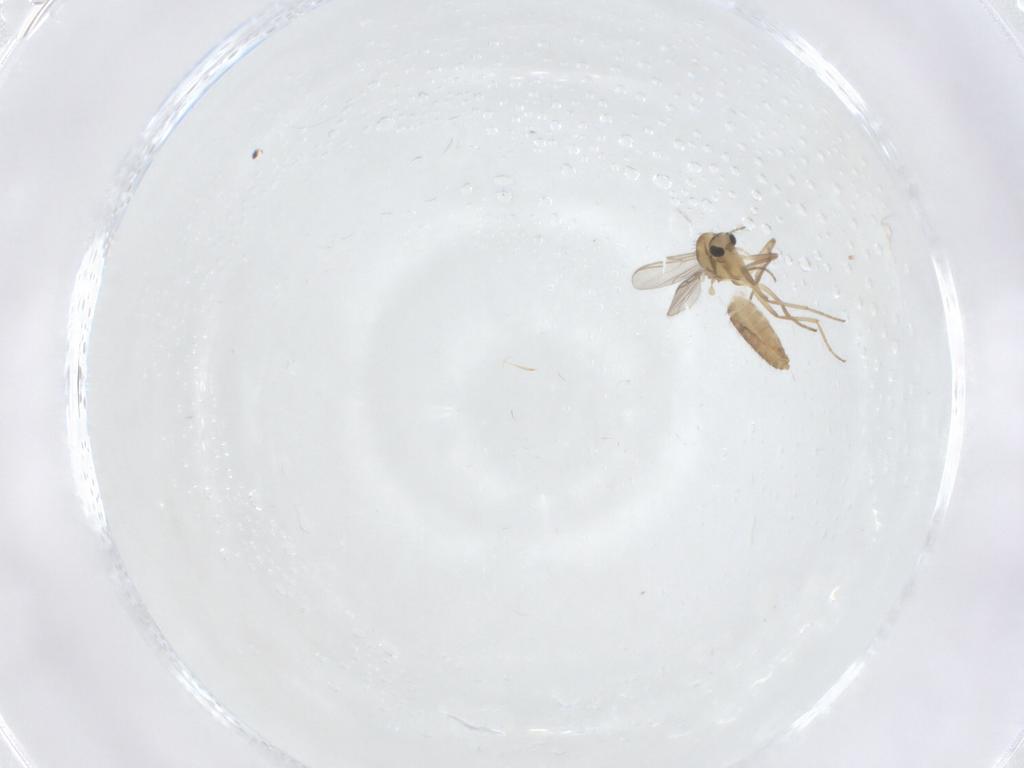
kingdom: Animalia
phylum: Arthropoda
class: Insecta
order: Diptera
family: Chironomidae
